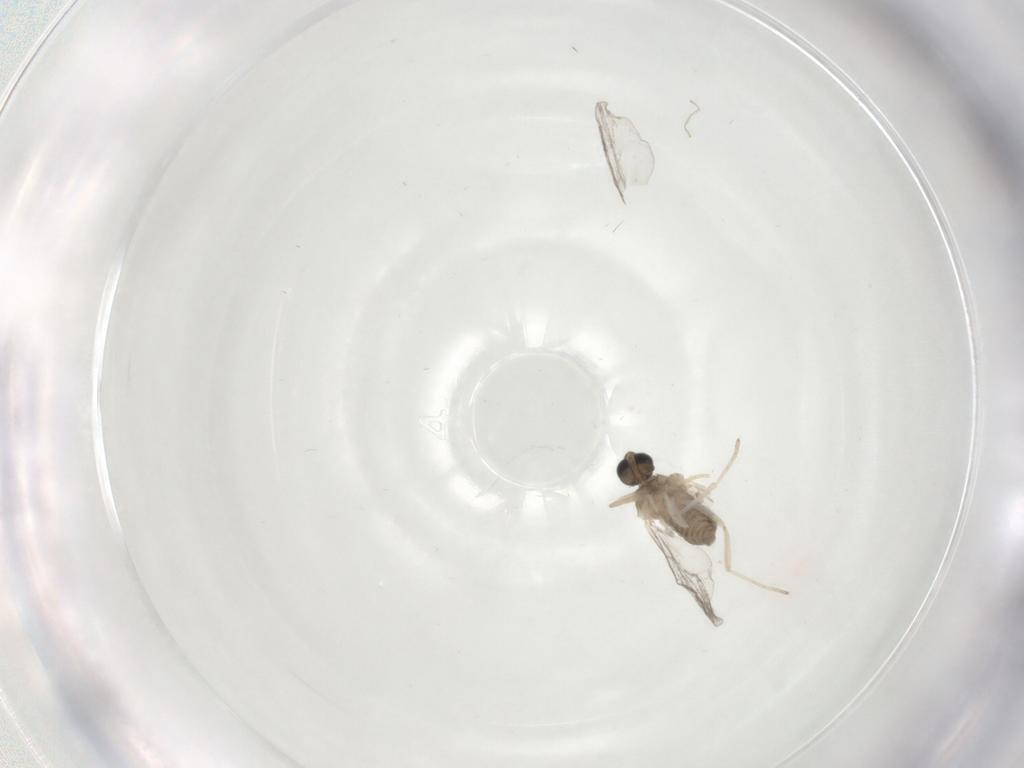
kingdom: Animalia
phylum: Arthropoda
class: Insecta
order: Diptera
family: Cecidomyiidae
